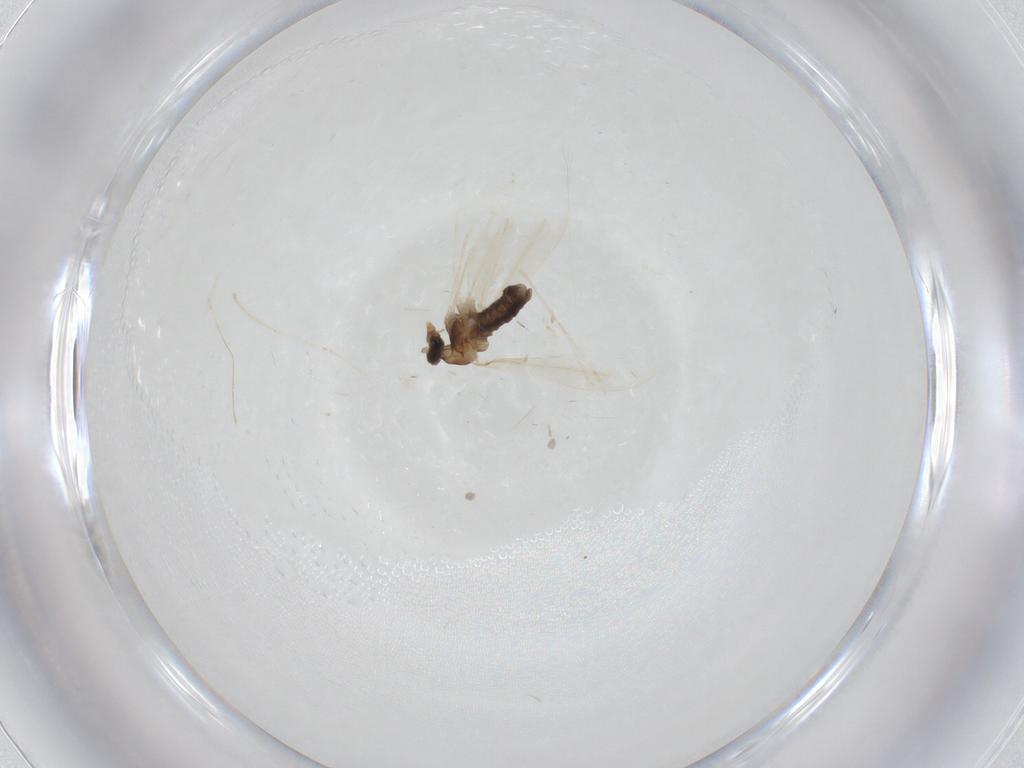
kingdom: Animalia
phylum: Arthropoda
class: Insecta
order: Diptera
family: Cecidomyiidae
